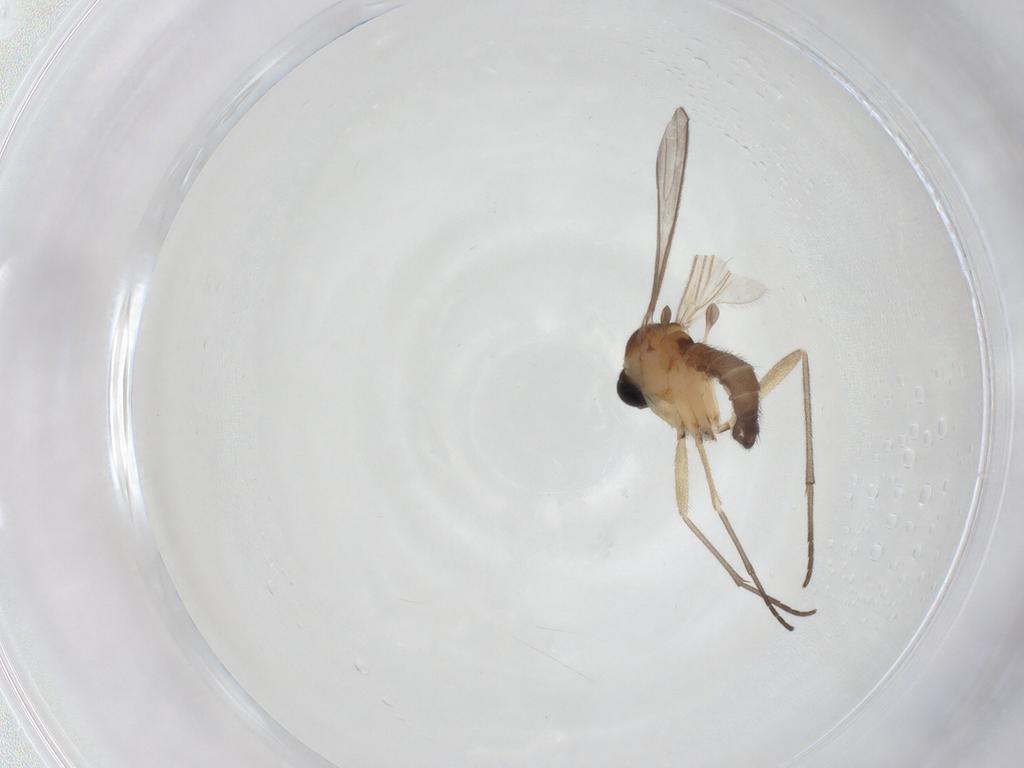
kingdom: Animalia
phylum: Arthropoda
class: Insecta
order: Diptera
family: Sciaridae
